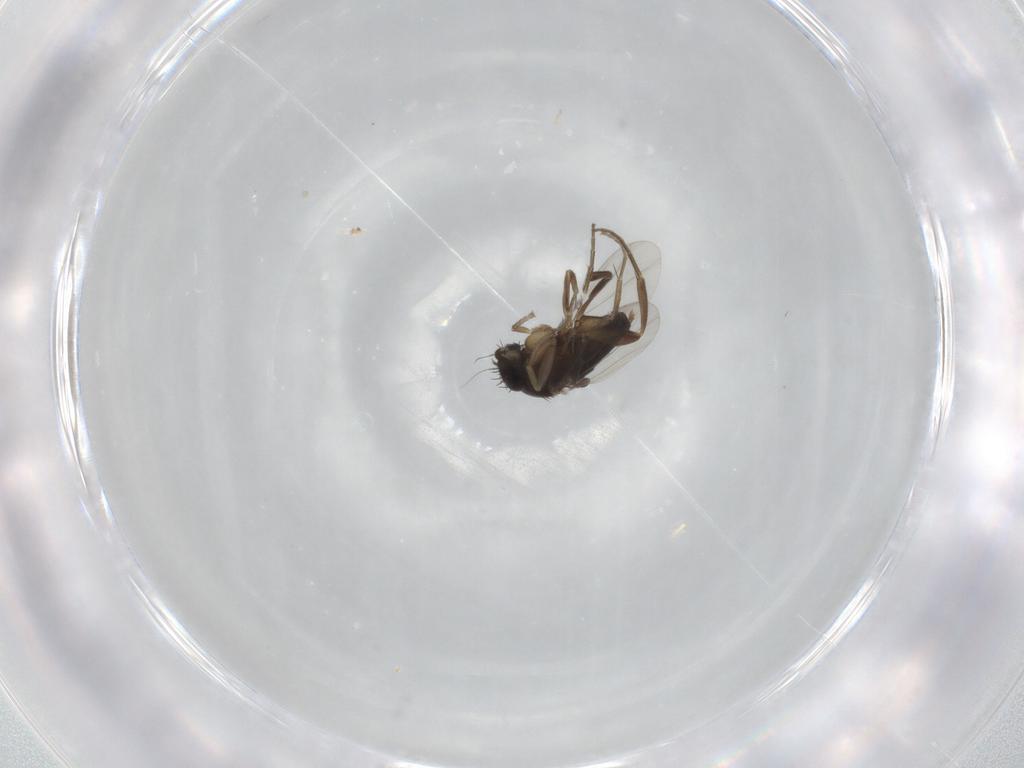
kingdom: Animalia
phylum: Arthropoda
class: Insecta
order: Diptera
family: Phoridae
